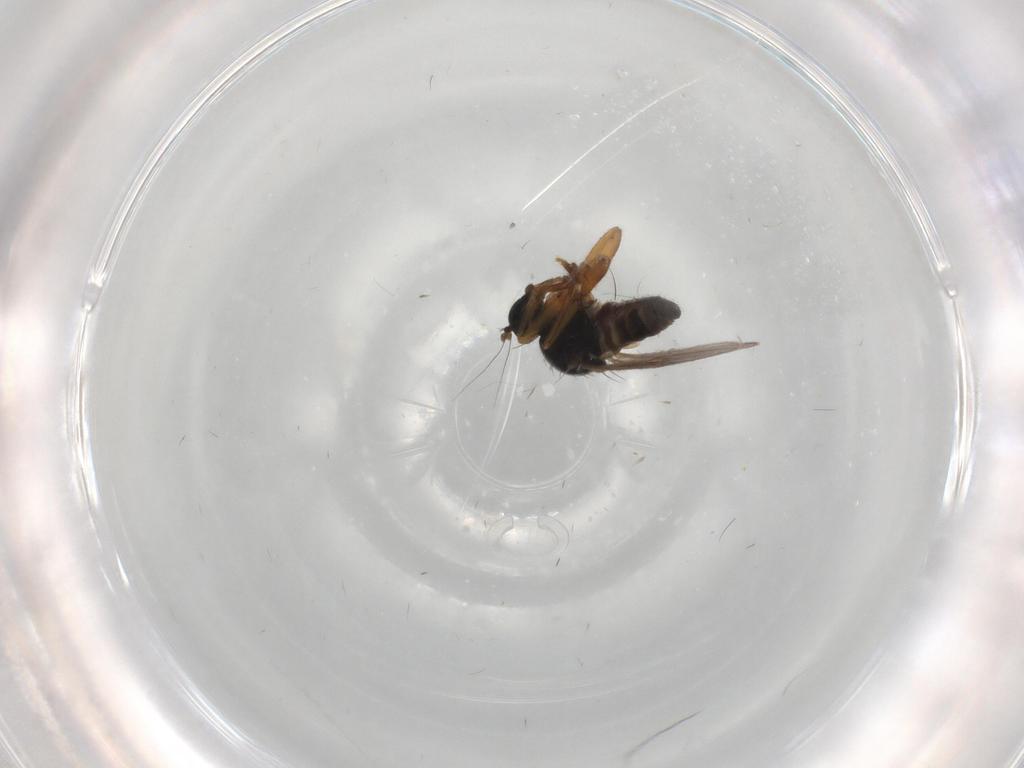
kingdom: Animalia
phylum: Arthropoda
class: Insecta
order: Diptera
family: Hybotidae
